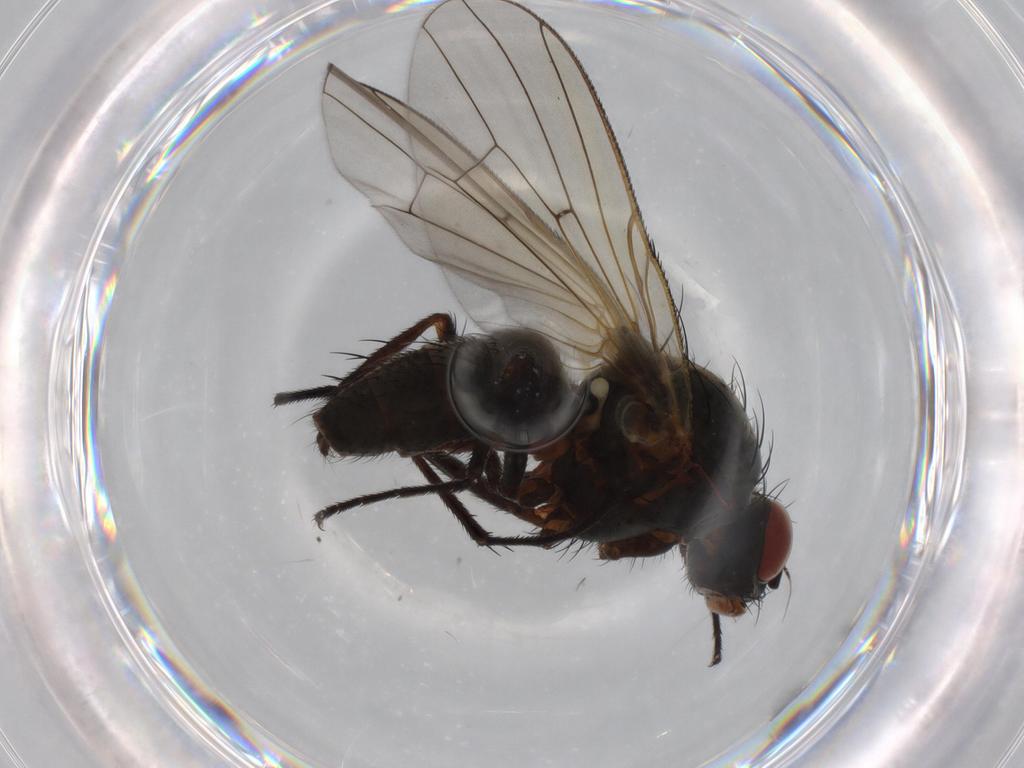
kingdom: Animalia
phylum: Arthropoda
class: Insecta
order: Diptera
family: Anthomyiidae
